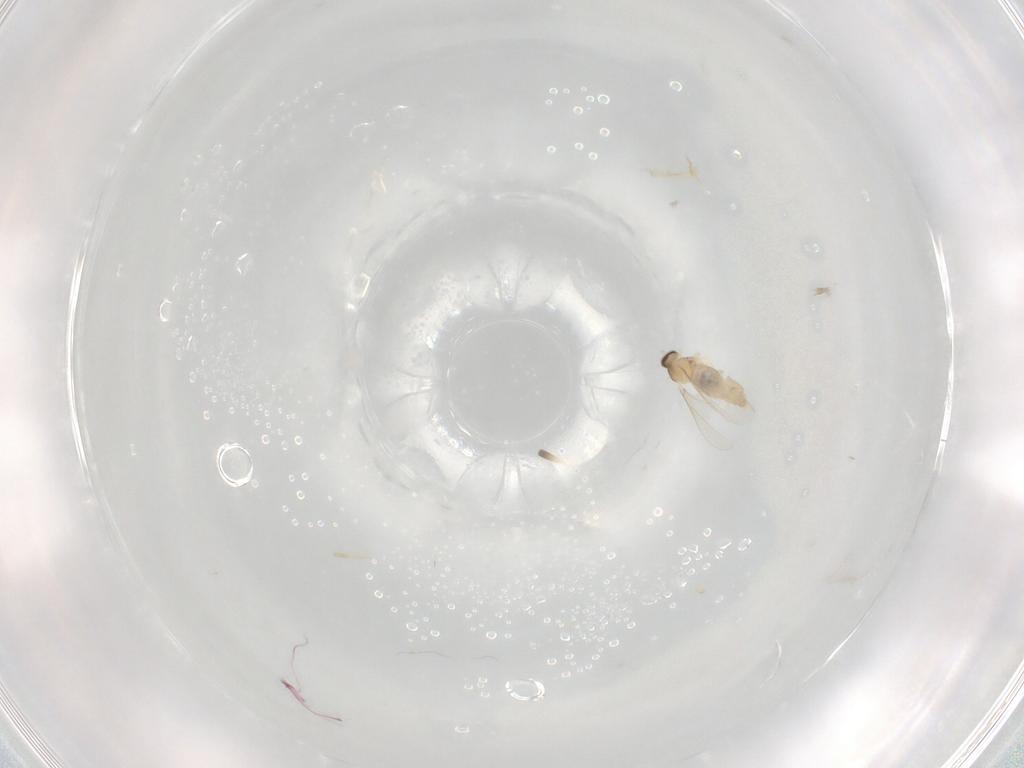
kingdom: Animalia
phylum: Arthropoda
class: Insecta
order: Diptera
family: Cecidomyiidae
